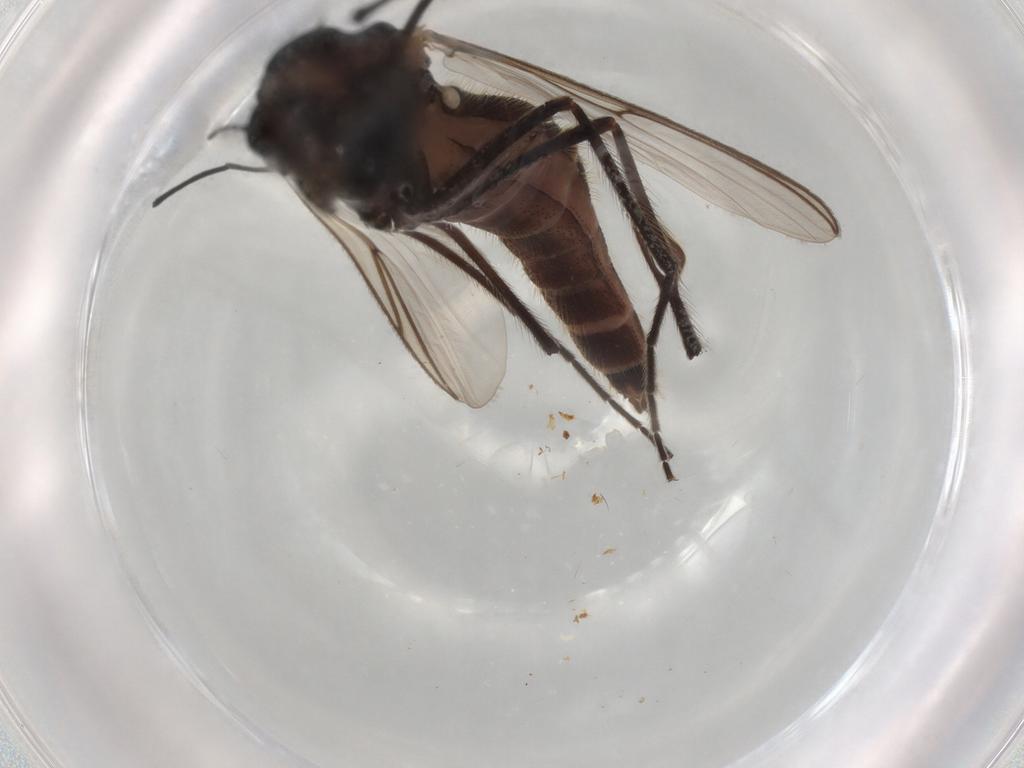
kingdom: Animalia
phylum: Arthropoda
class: Insecta
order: Diptera
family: Chironomidae
